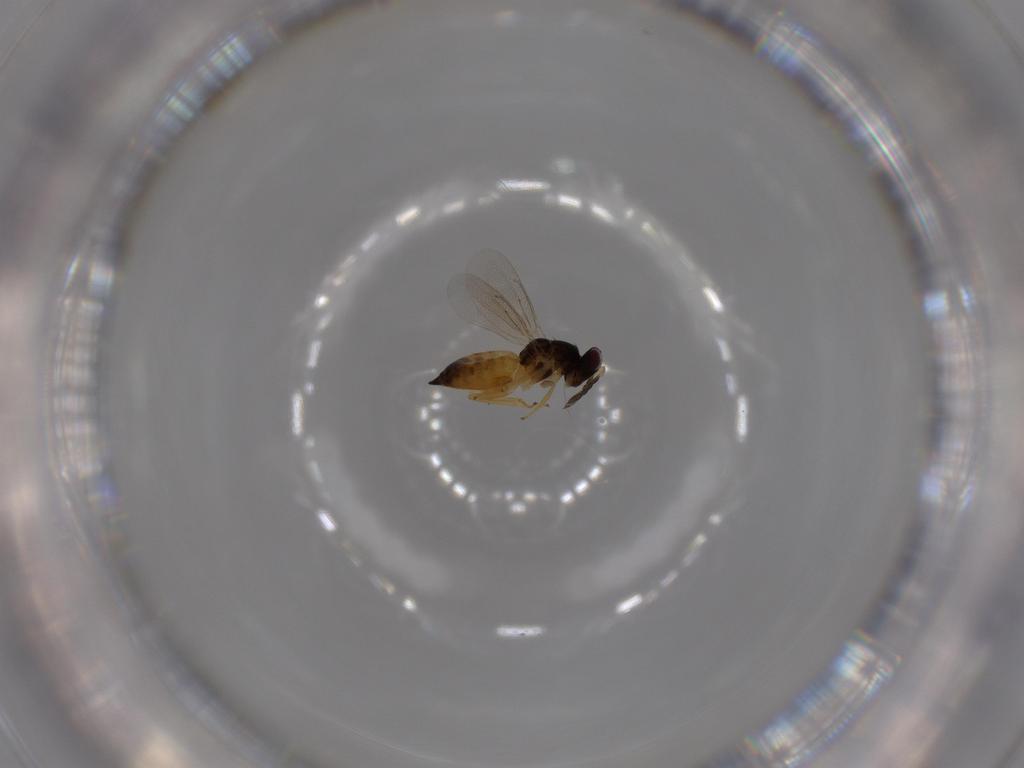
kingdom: Animalia
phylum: Arthropoda
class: Insecta
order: Hymenoptera
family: Eulophidae
